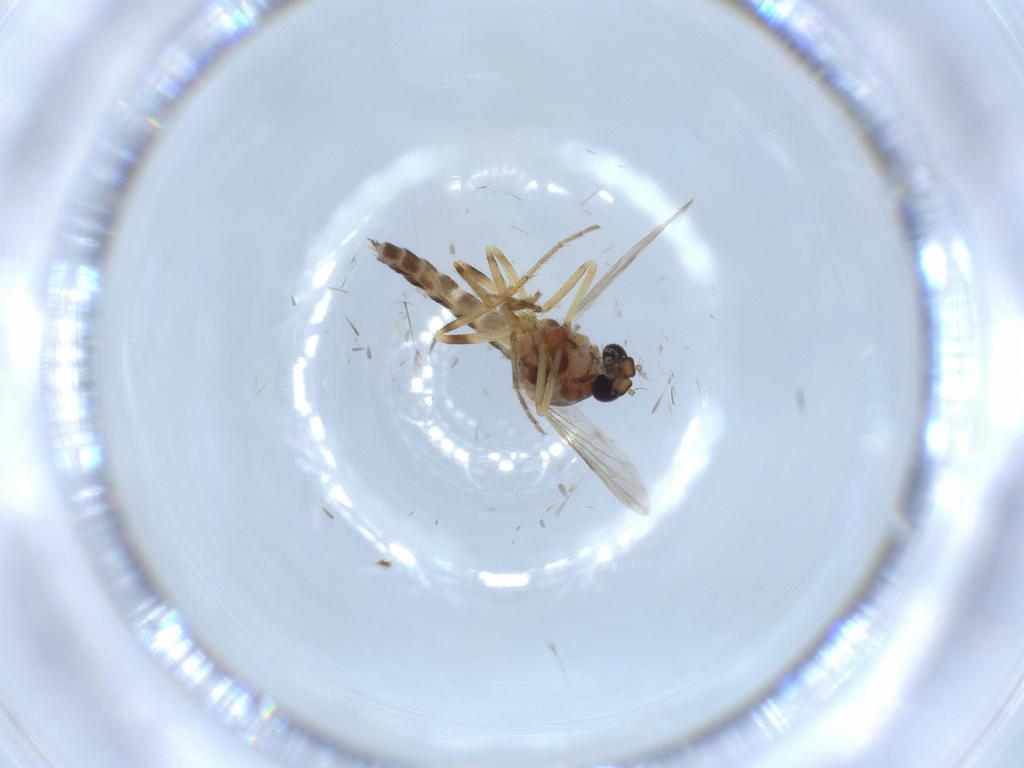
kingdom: Animalia
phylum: Arthropoda
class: Insecta
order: Diptera
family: Ceratopogonidae
